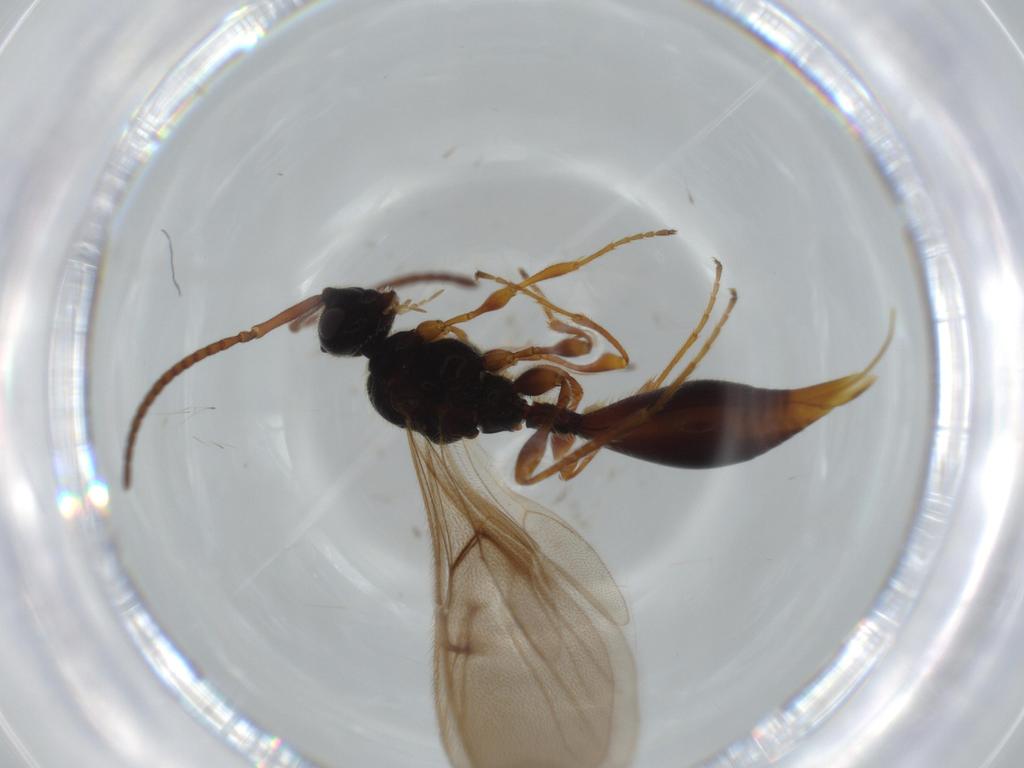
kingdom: Animalia
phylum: Arthropoda
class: Insecta
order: Hymenoptera
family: Diapriidae
